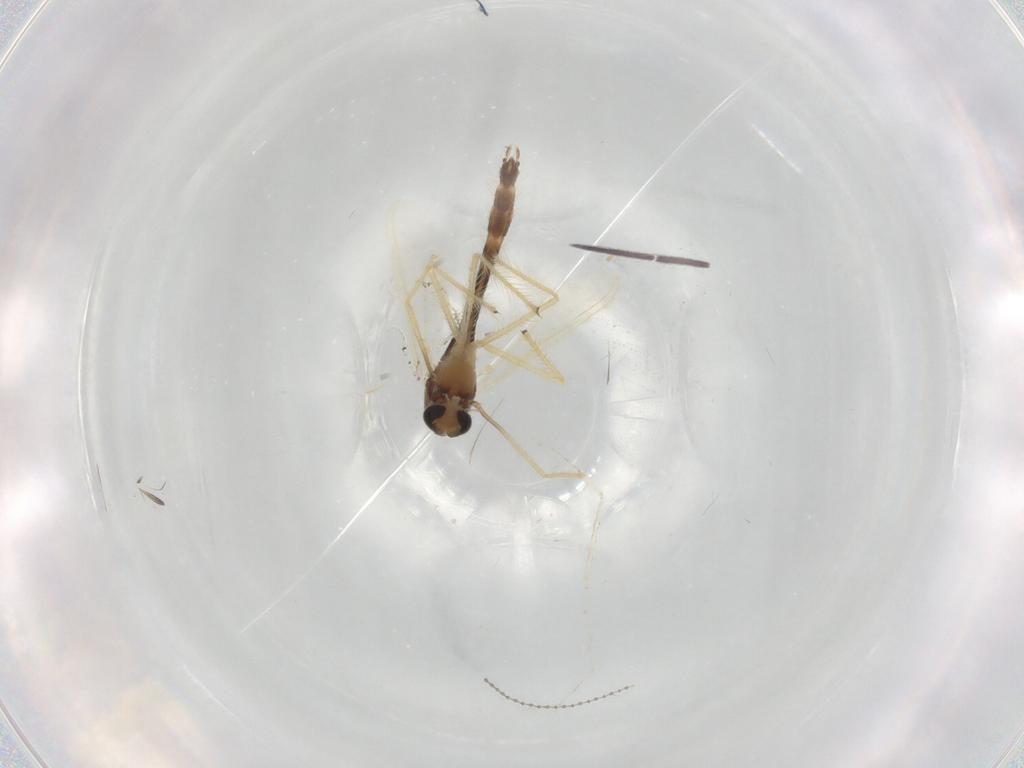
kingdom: Animalia
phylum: Arthropoda
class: Insecta
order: Diptera
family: Chironomidae
